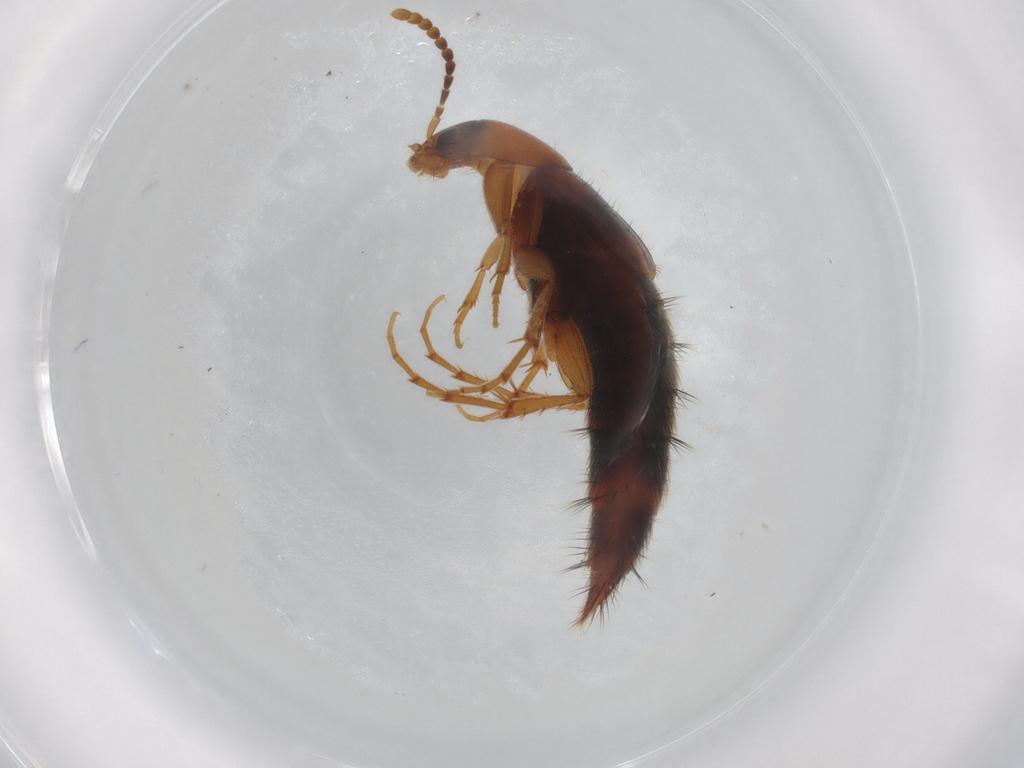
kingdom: Animalia
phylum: Arthropoda
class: Insecta
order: Coleoptera
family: Staphylinidae
